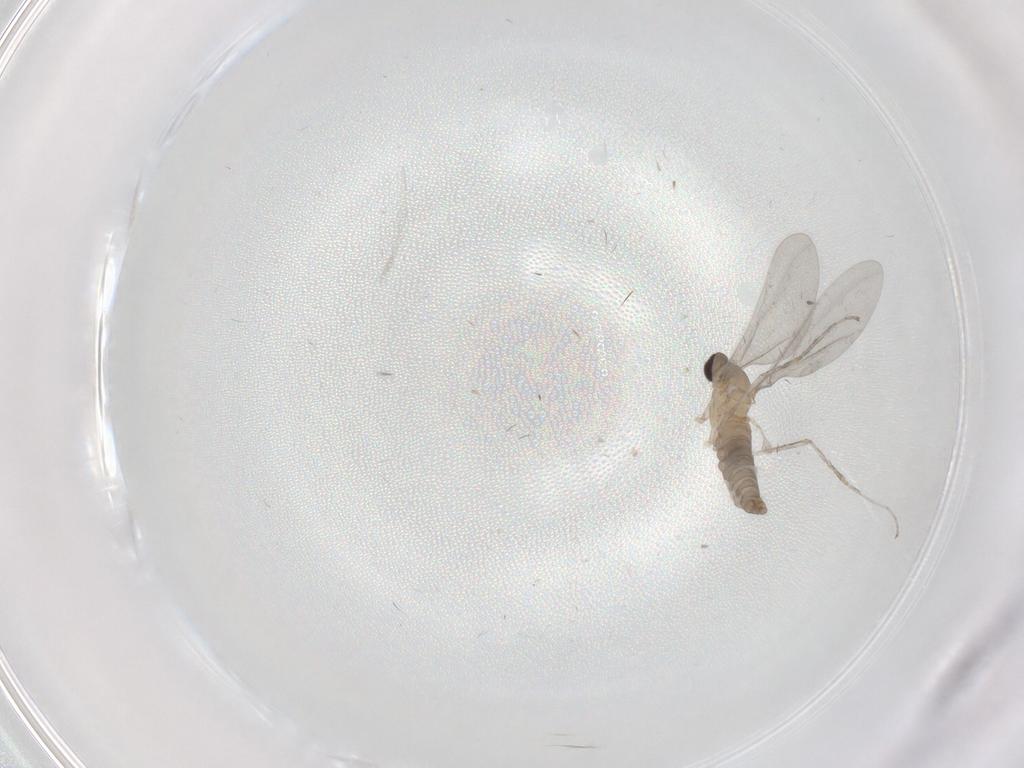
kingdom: Animalia
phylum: Arthropoda
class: Insecta
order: Diptera
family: Cecidomyiidae
